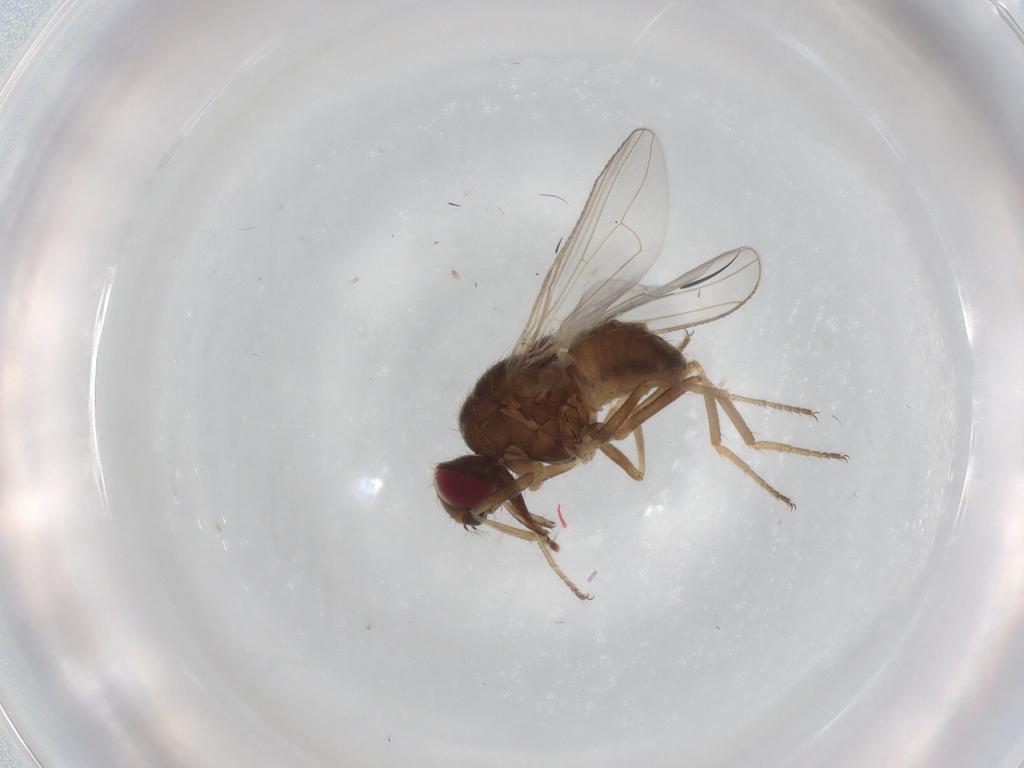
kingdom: Animalia
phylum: Arthropoda
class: Insecta
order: Diptera
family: Muscidae
